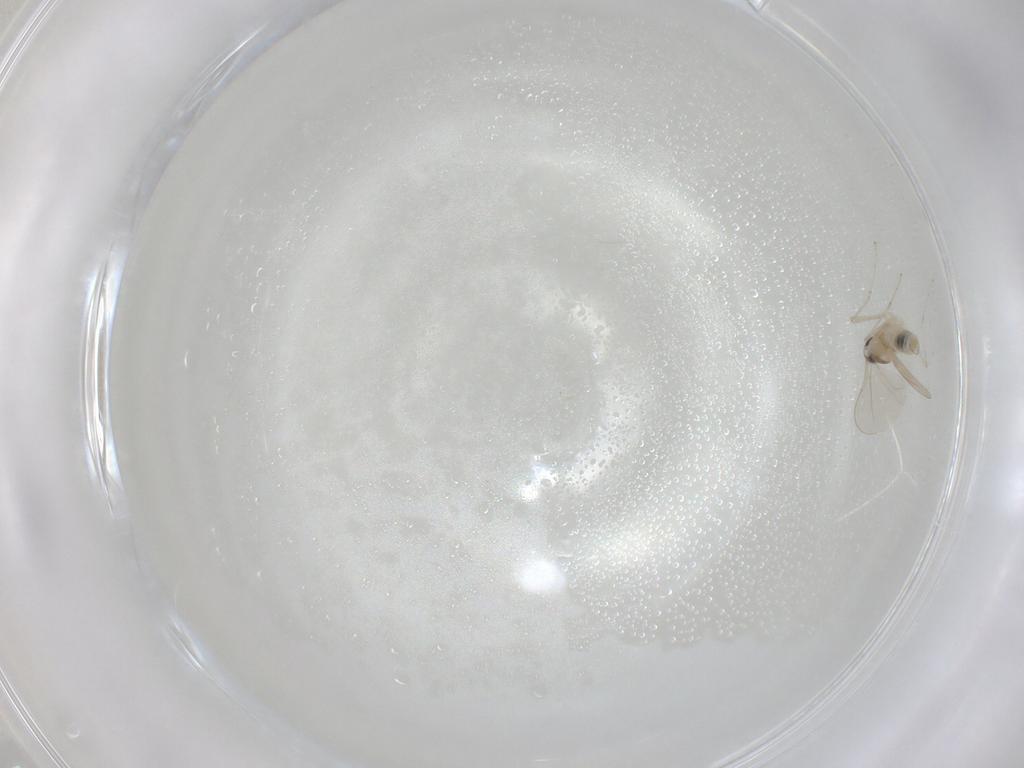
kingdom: Animalia
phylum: Arthropoda
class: Insecta
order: Diptera
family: Cecidomyiidae
